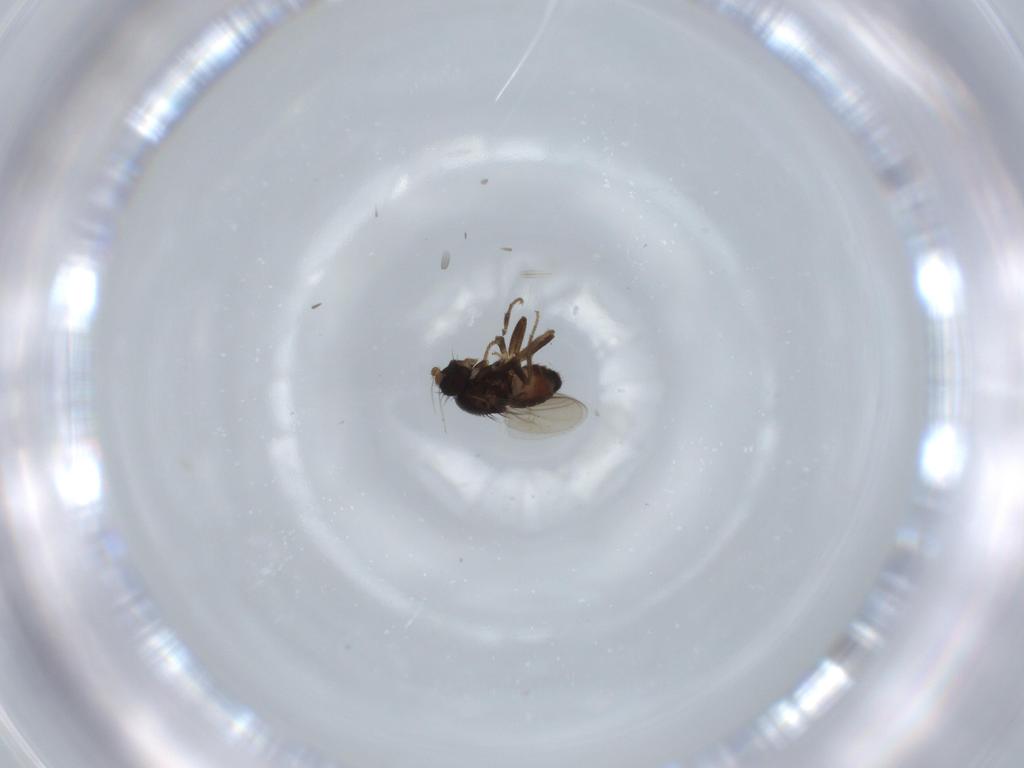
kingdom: Animalia
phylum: Arthropoda
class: Insecta
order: Diptera
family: Sphaeroceridae
